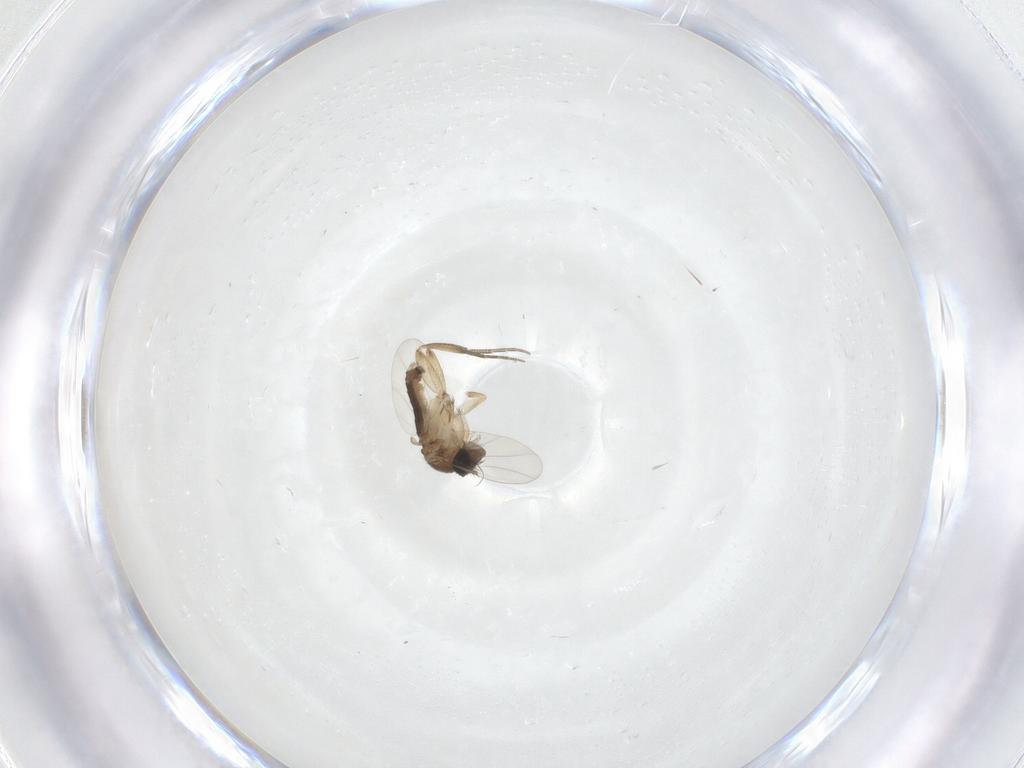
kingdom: Animalia
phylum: Arthropoda
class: Insecta
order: Diptera
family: Phoridae
